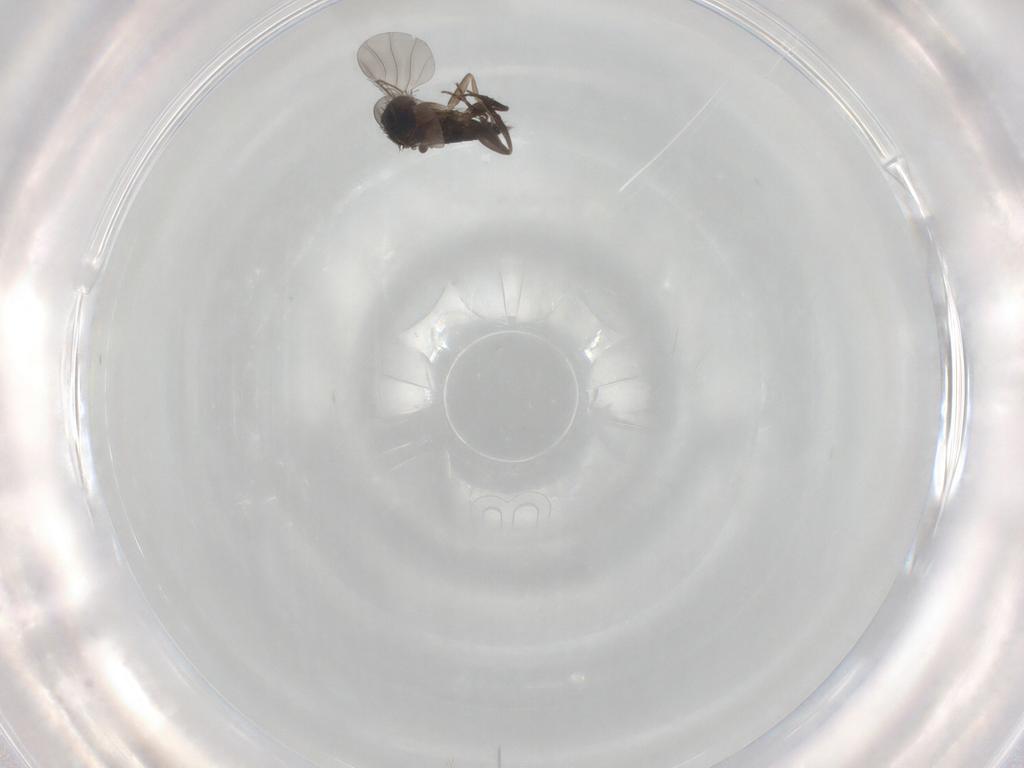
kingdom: Animalia
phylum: Arthropoda
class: Insecta
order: Diptera
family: Phoridae
